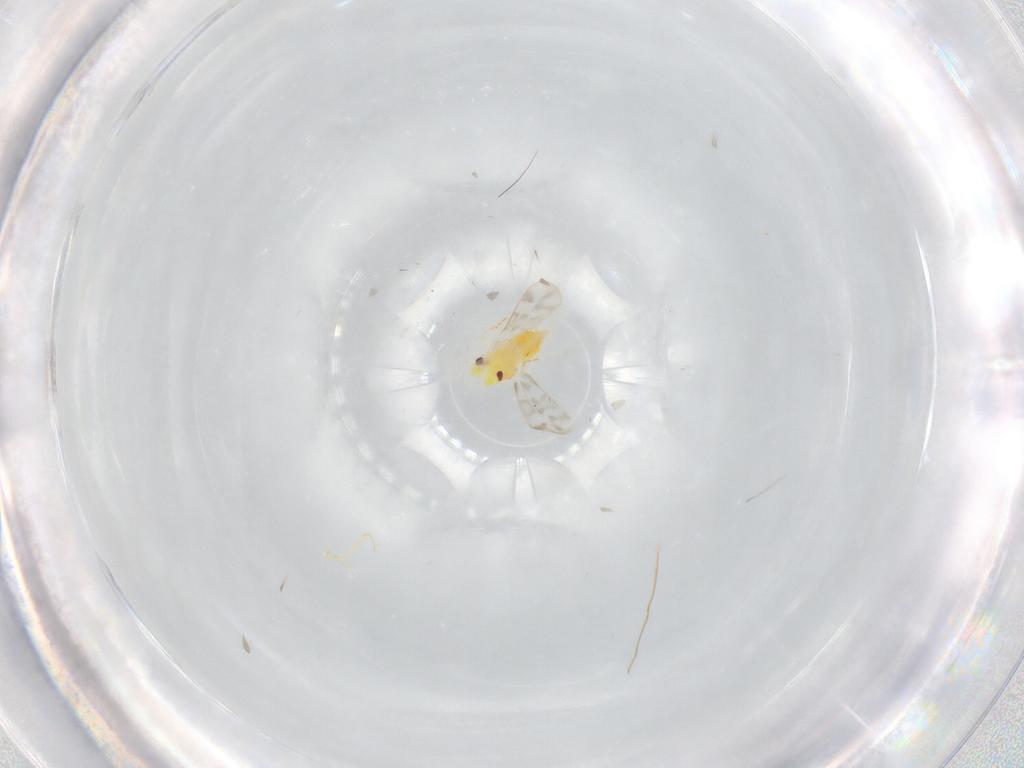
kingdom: Animalia
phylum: Arthropoda
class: Insecta
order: Hemiptera
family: Aleyrodidae
